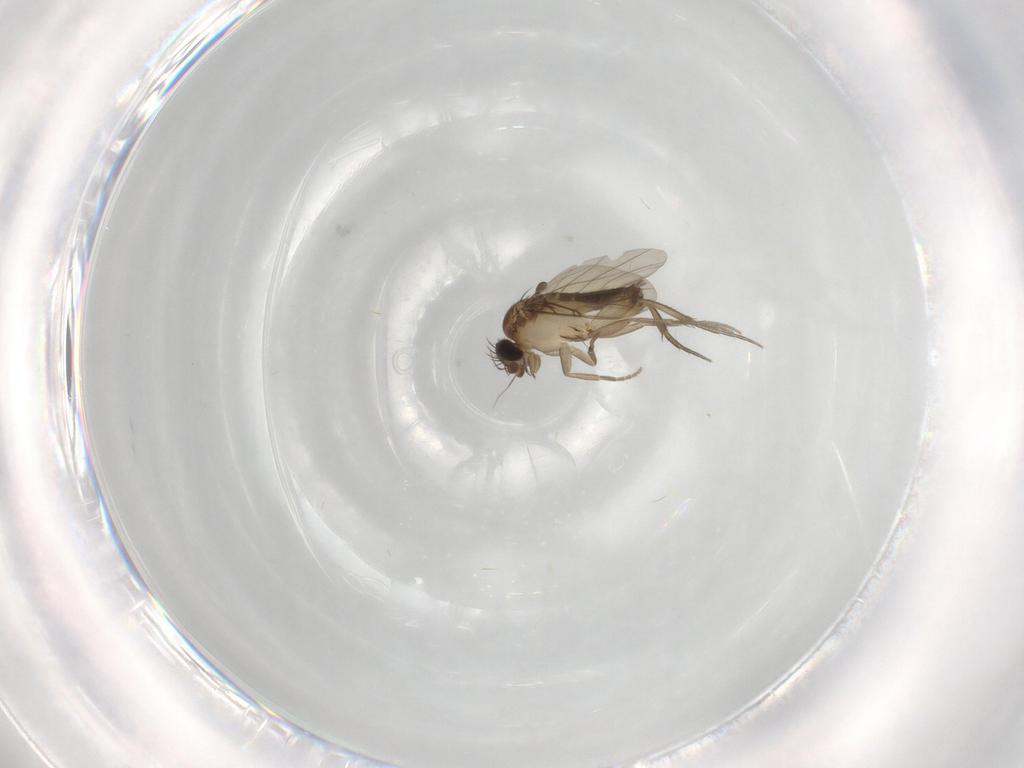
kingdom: Animalia
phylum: Arthropoda
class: Insecta
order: Diptera
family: Phoridae
